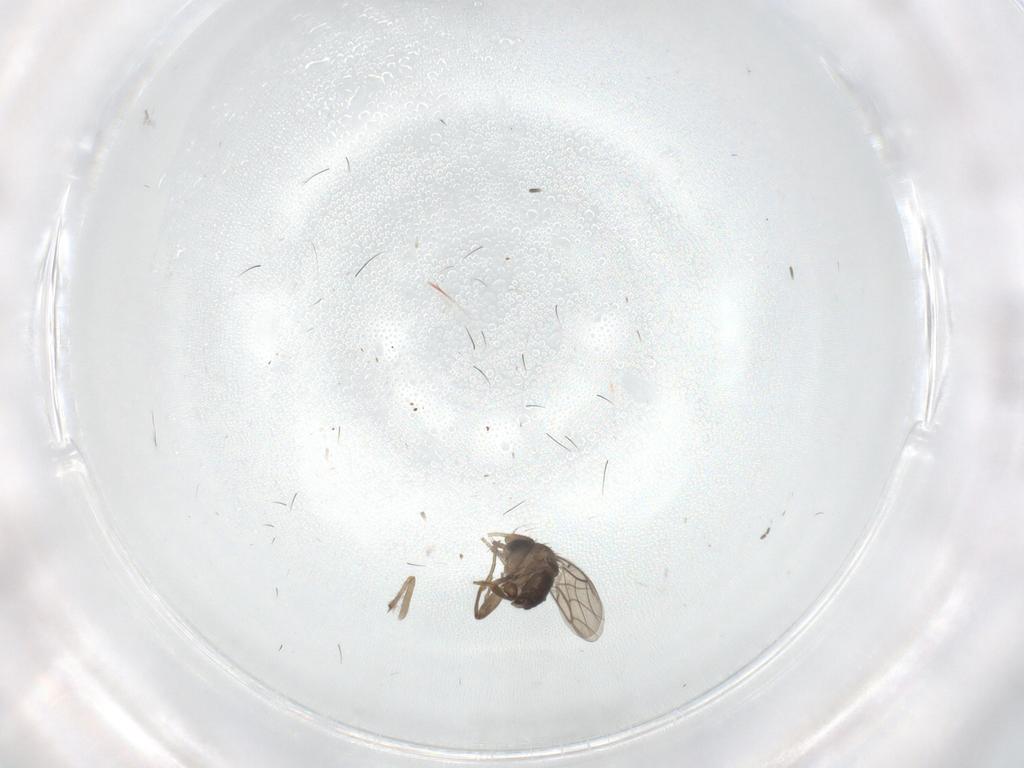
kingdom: Animalia
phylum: Arthropoda
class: Insecta
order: Diptera
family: Phoridae
